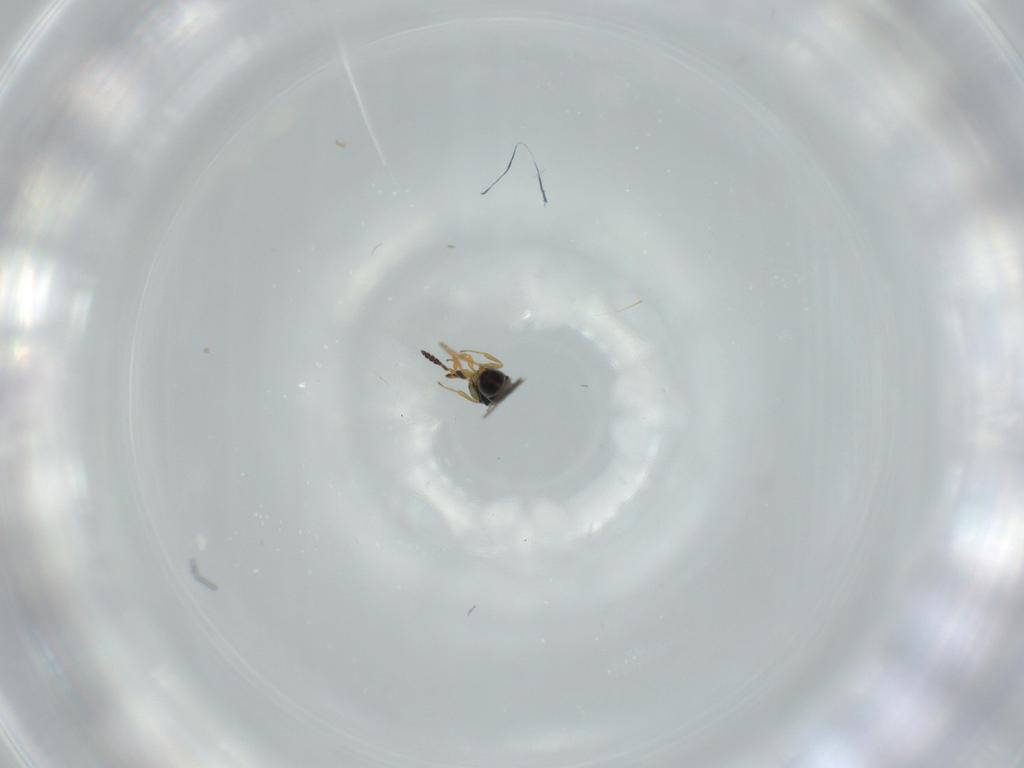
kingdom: Animalia
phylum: Arthropoda
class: Insecta
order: Hymenoptera
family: Scelionidae
